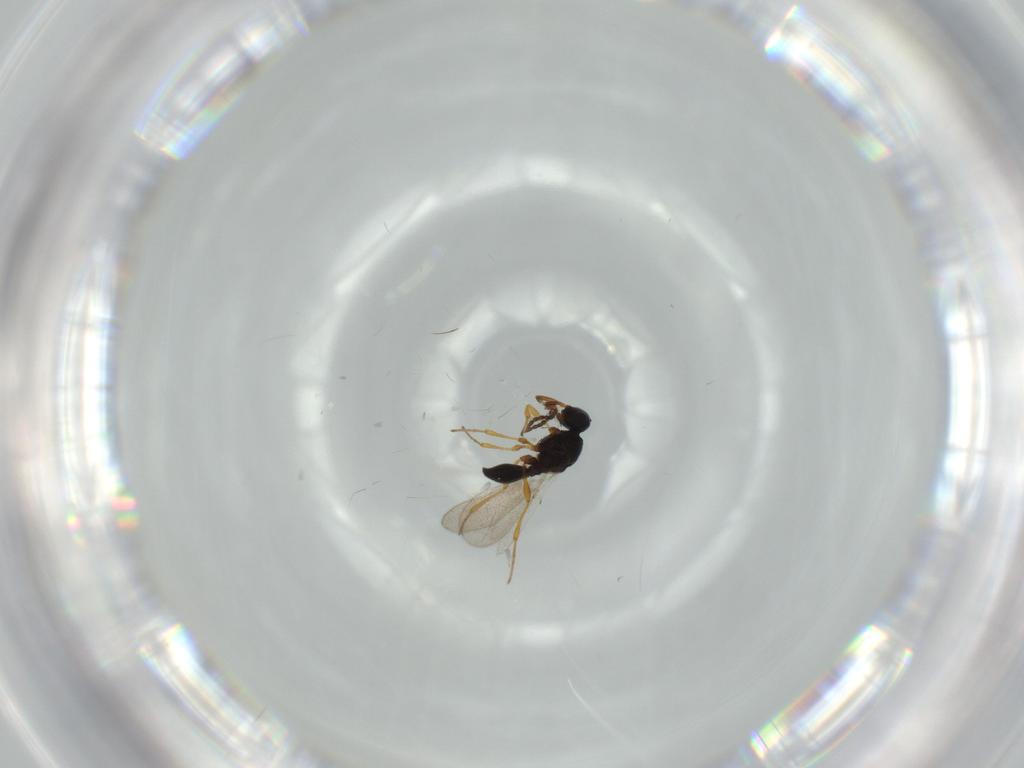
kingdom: Animalia
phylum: Arthropoda
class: Insecta
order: Diptera
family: Mythicomyiidae
